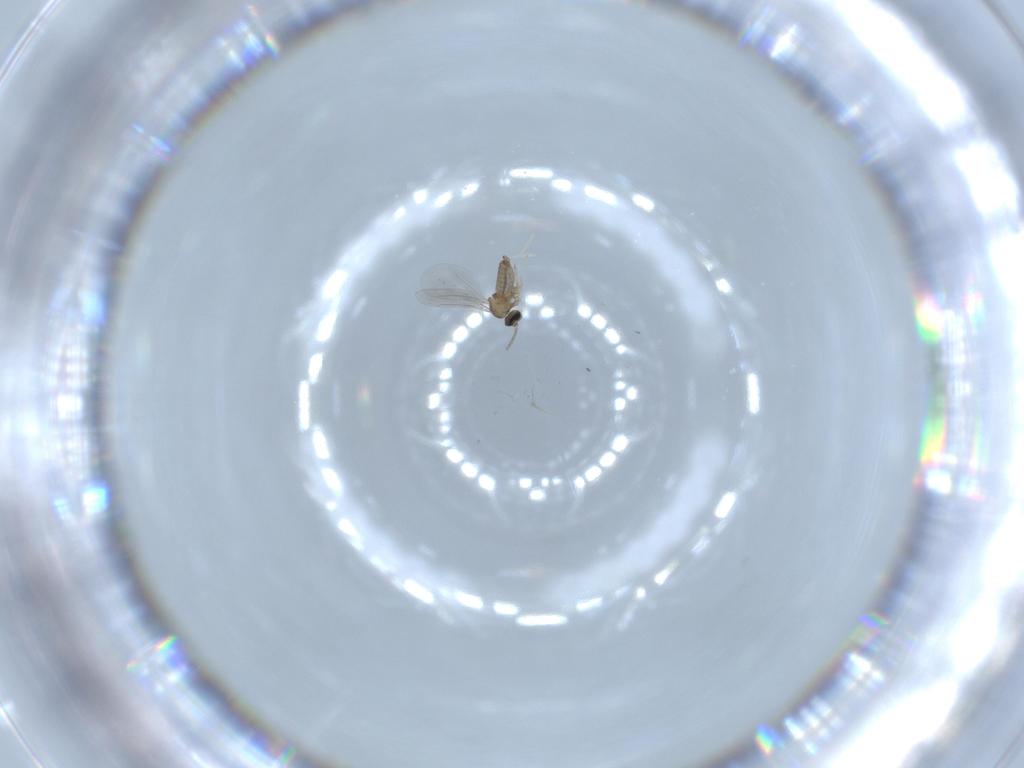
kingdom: Animalia
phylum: Arthropoda
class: Insecta
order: Diptera
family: Cecidomyiidae
